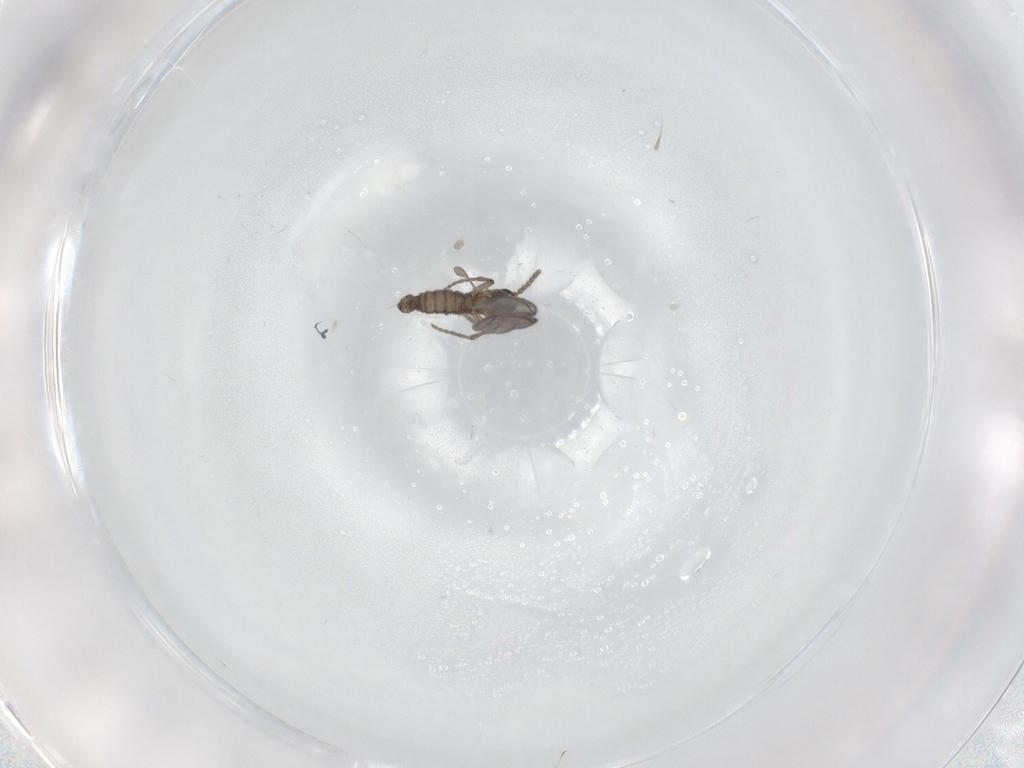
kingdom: Animalia
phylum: Arthropoda
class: Insecta
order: Diptera
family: Sciaridae
